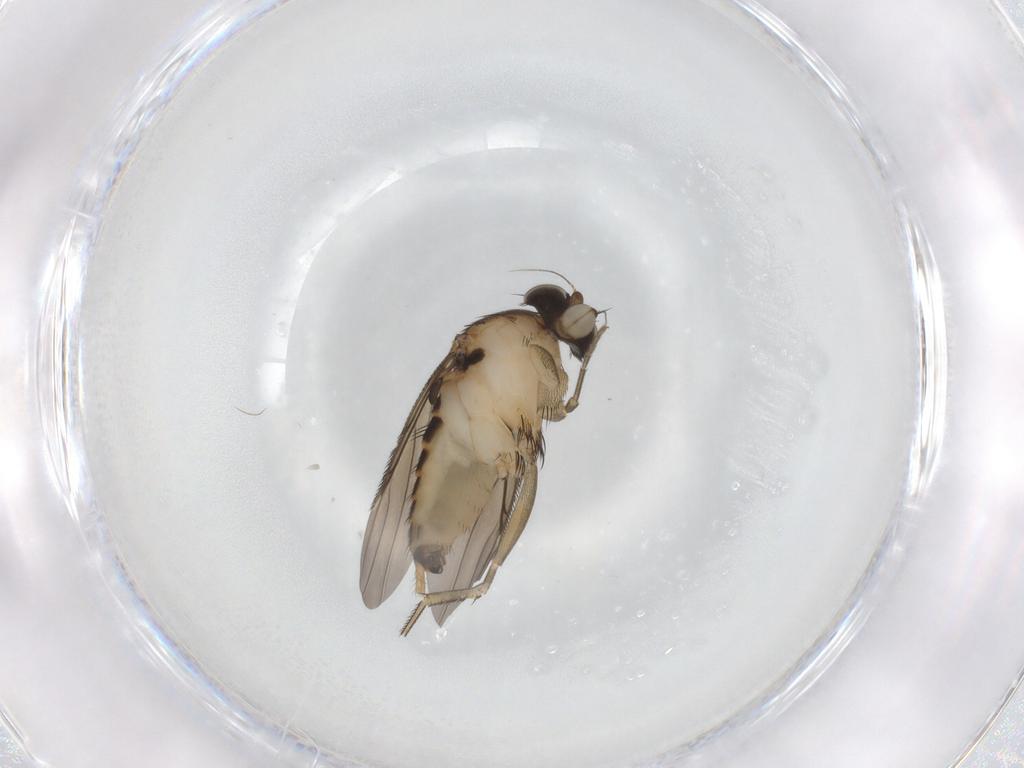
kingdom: Animalia
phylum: Arthropoda
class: Insecta
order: Diptera
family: Phoridae
